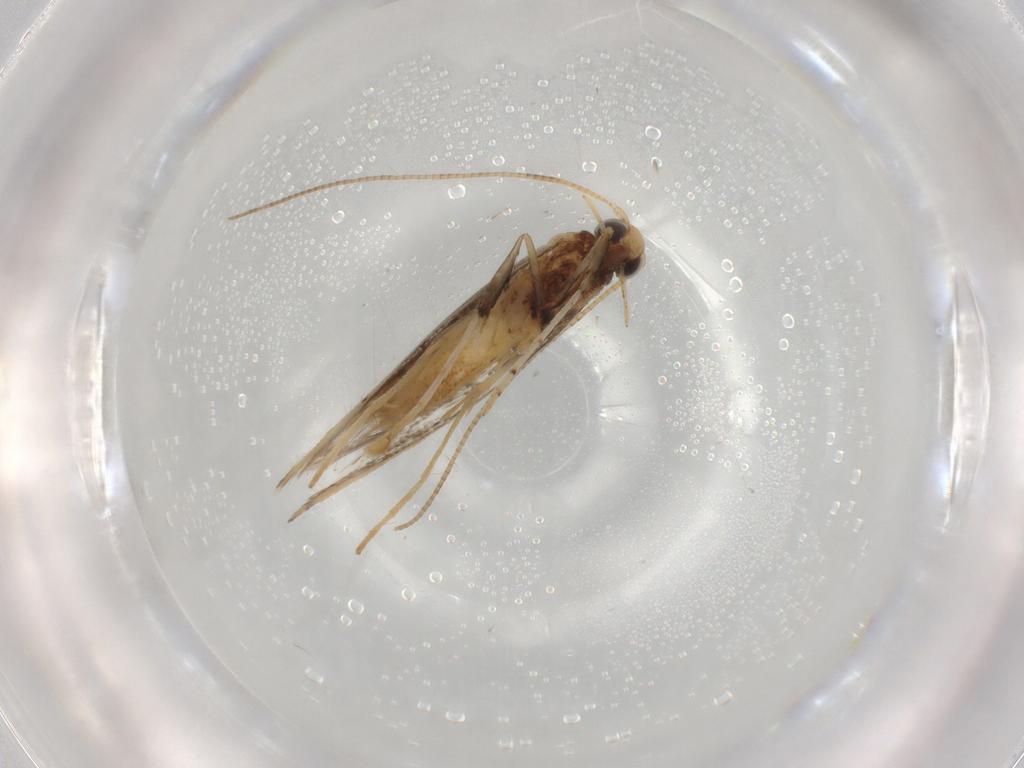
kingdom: Animalia
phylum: Arthropoda
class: Insecta
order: Lepidoptera
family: Gracillariidae
